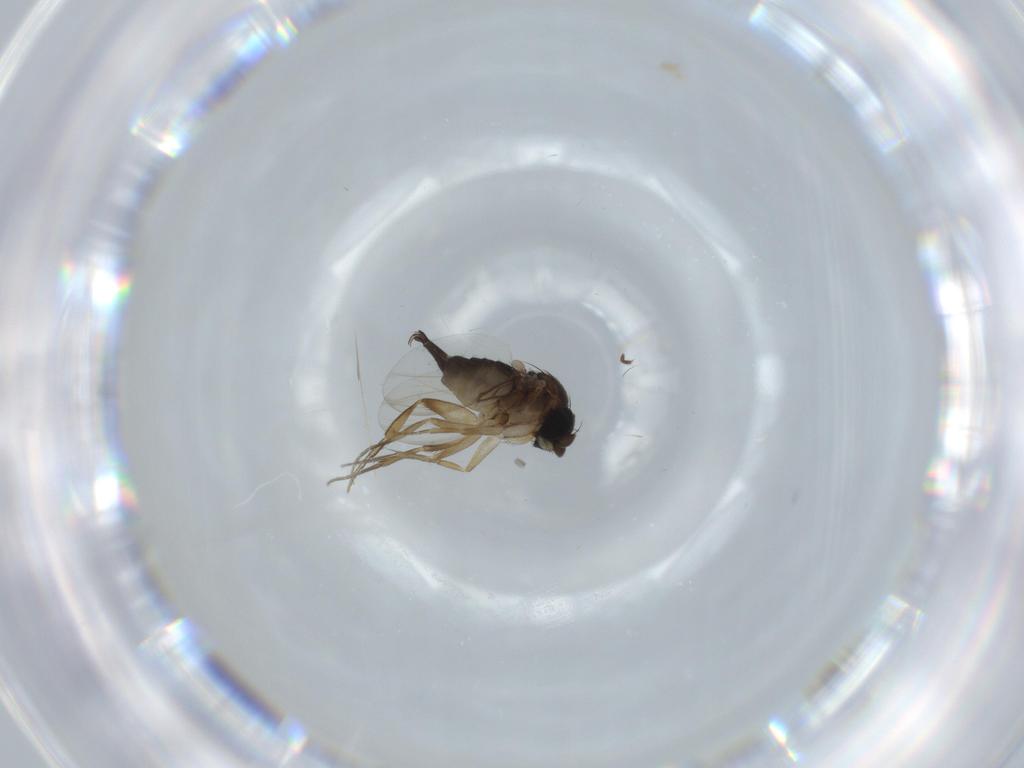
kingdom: Animalia
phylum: Arthropoda
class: Insecta
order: Diptera
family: Phoridae
